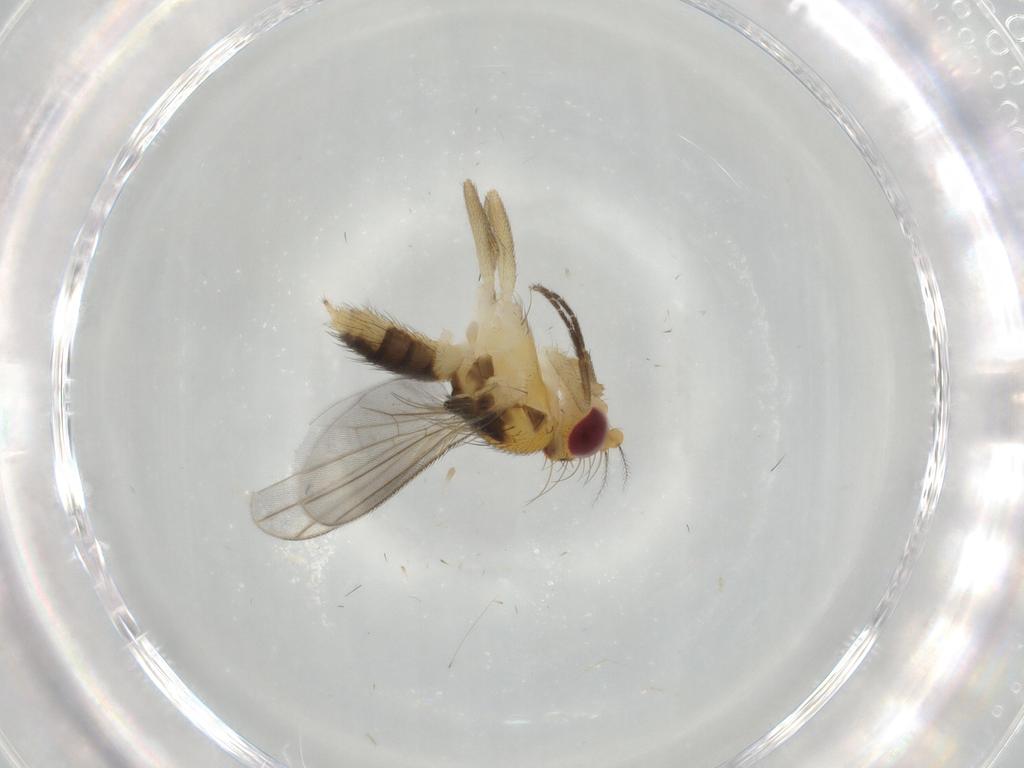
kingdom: Animalia
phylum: Arthropoda
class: Insecta
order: Diptera
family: Clusiidae
